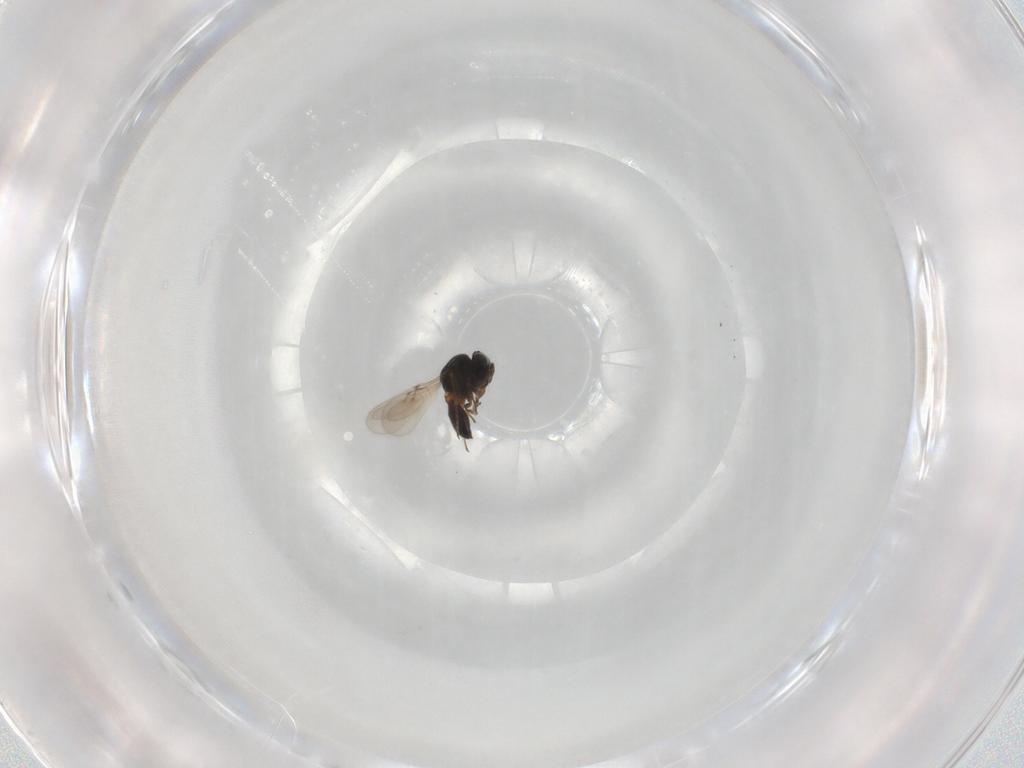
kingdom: Animalia
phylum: Arthropoda
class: Insecta
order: Hymenoptera
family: Scelionidae
